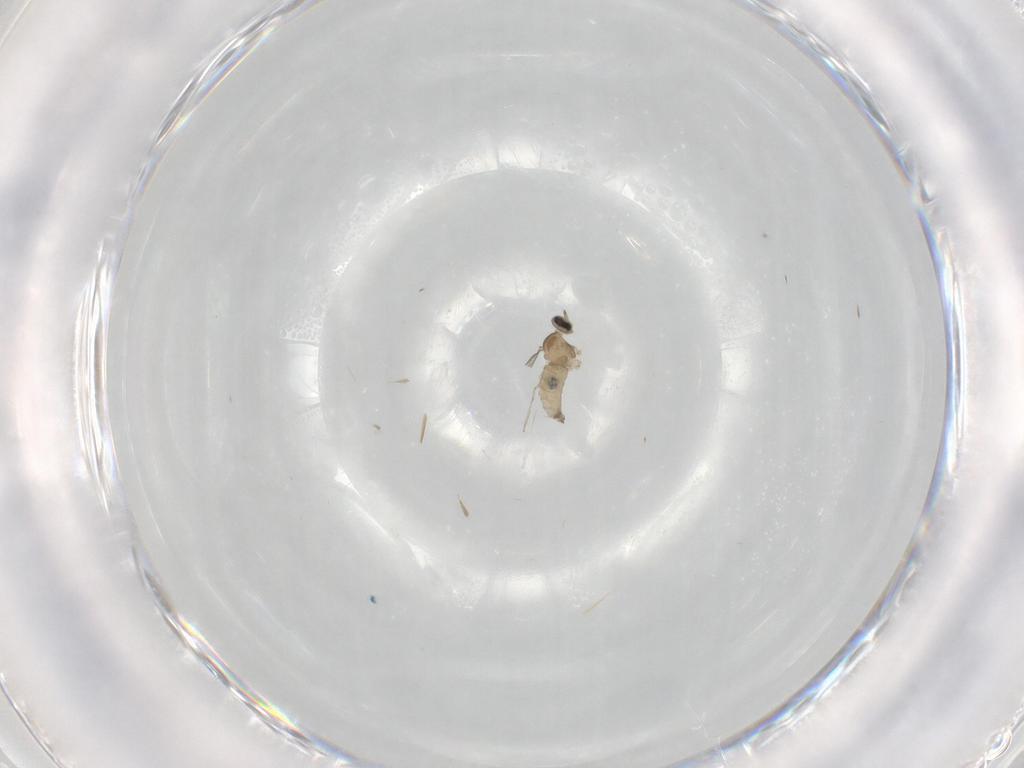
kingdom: Animalia
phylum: Arthropoda
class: Insecta
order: Diptera
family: Cecidomyiidae
